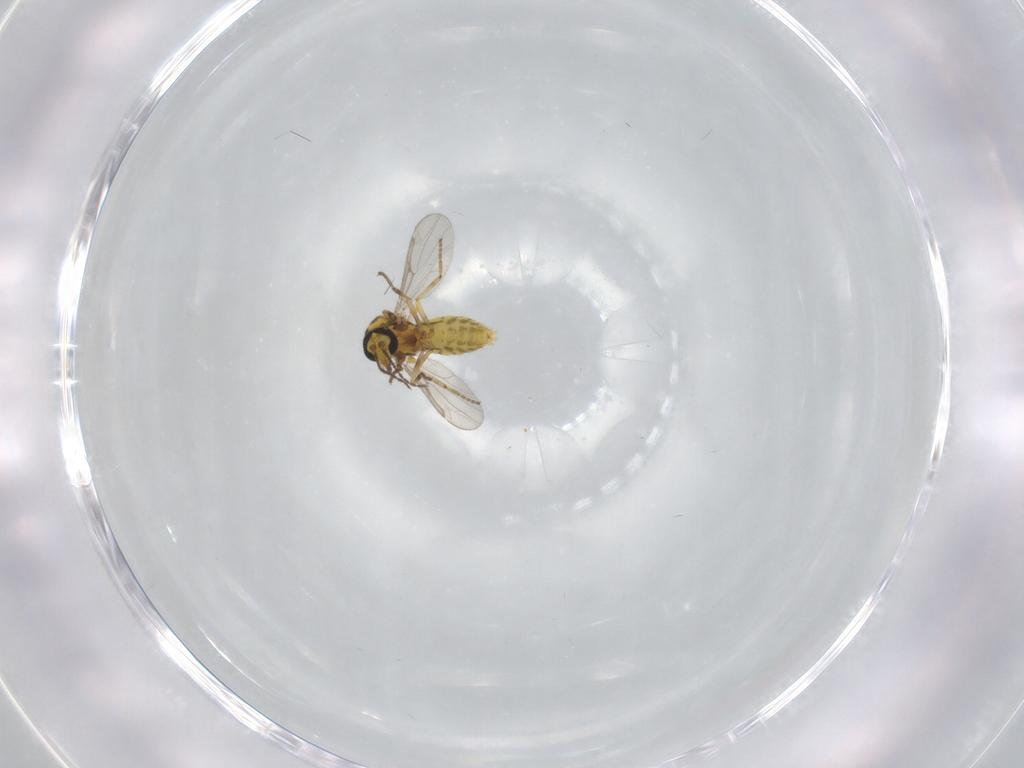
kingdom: Animalia
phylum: Arthropoda
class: Insecta
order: Diptera
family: Ceratopogonidae
